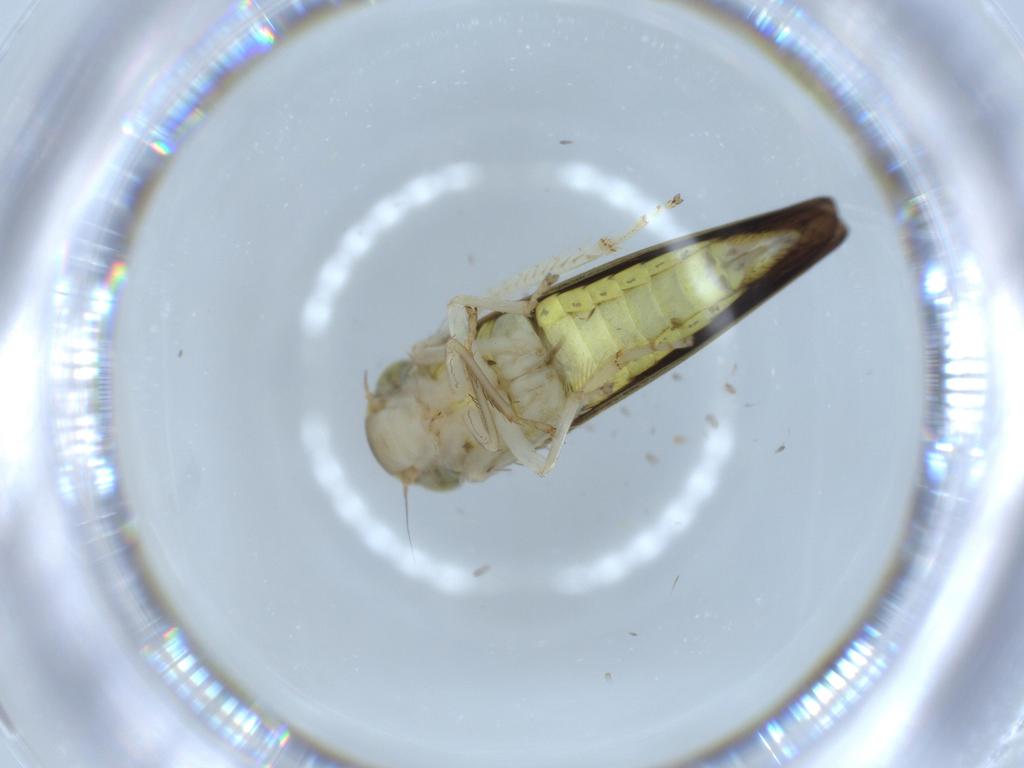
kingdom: Animalia
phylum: Arthropoda
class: Insecta
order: Hemiptera
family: Cicadellidae
